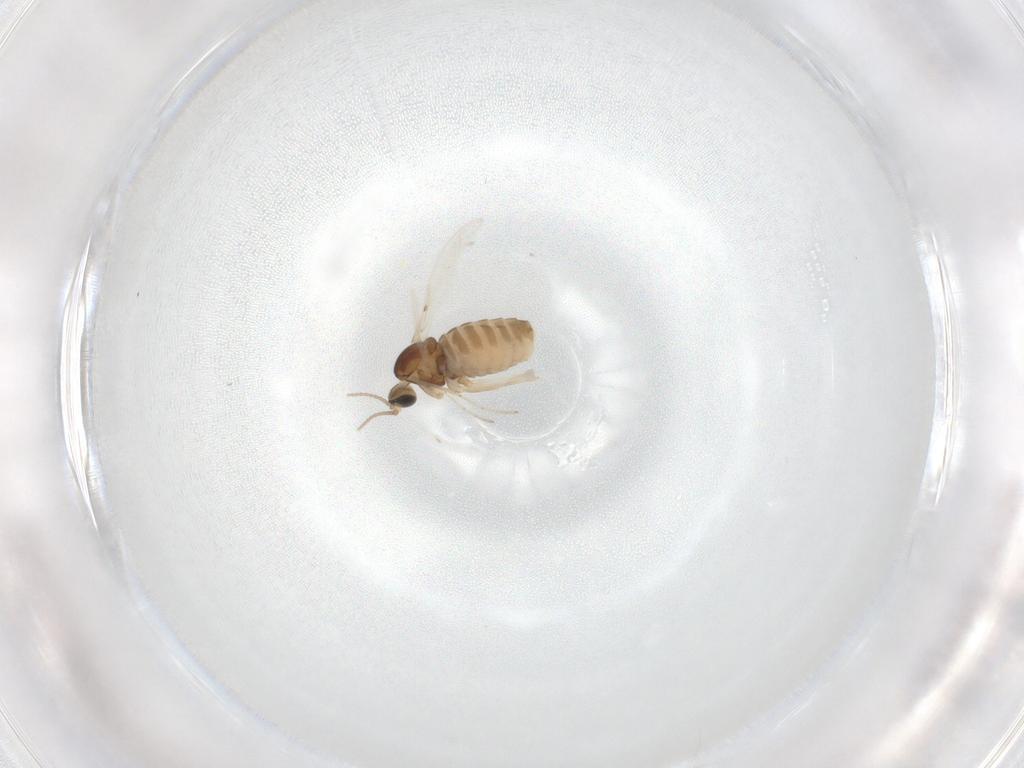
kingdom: Animalia
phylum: Arthropoda
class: Insecta
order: Diptera
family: Cecidomyiidae
